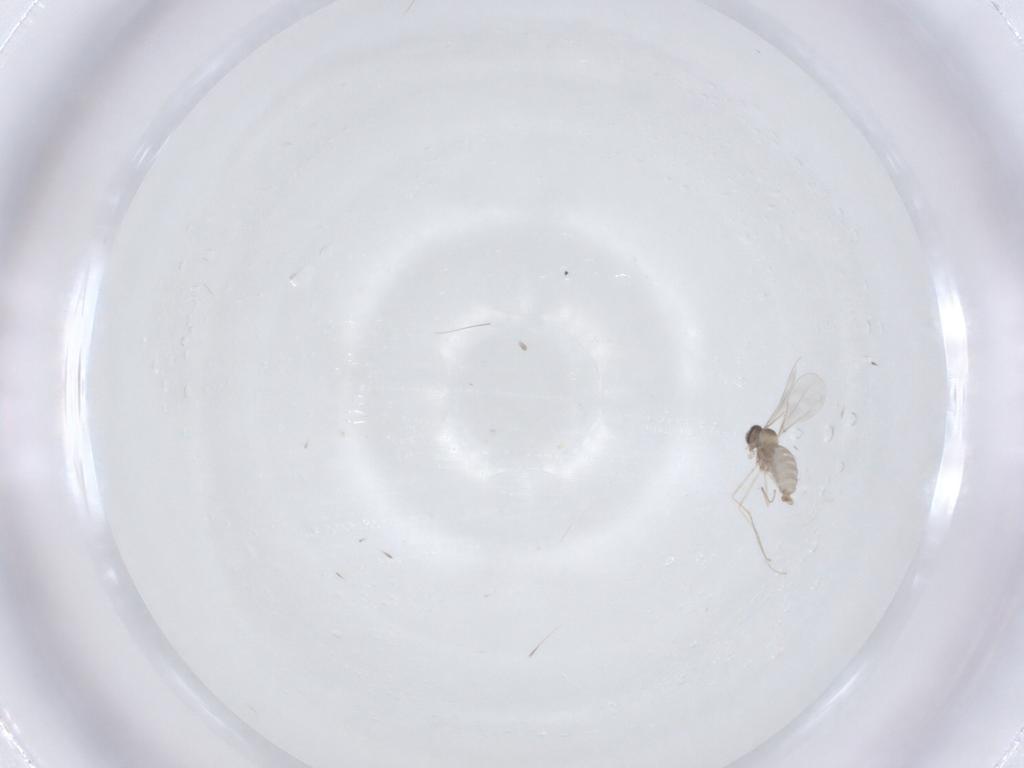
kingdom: Animalia
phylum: Arthropoda
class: Insecta
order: Diptera
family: Cecidomyiidae
